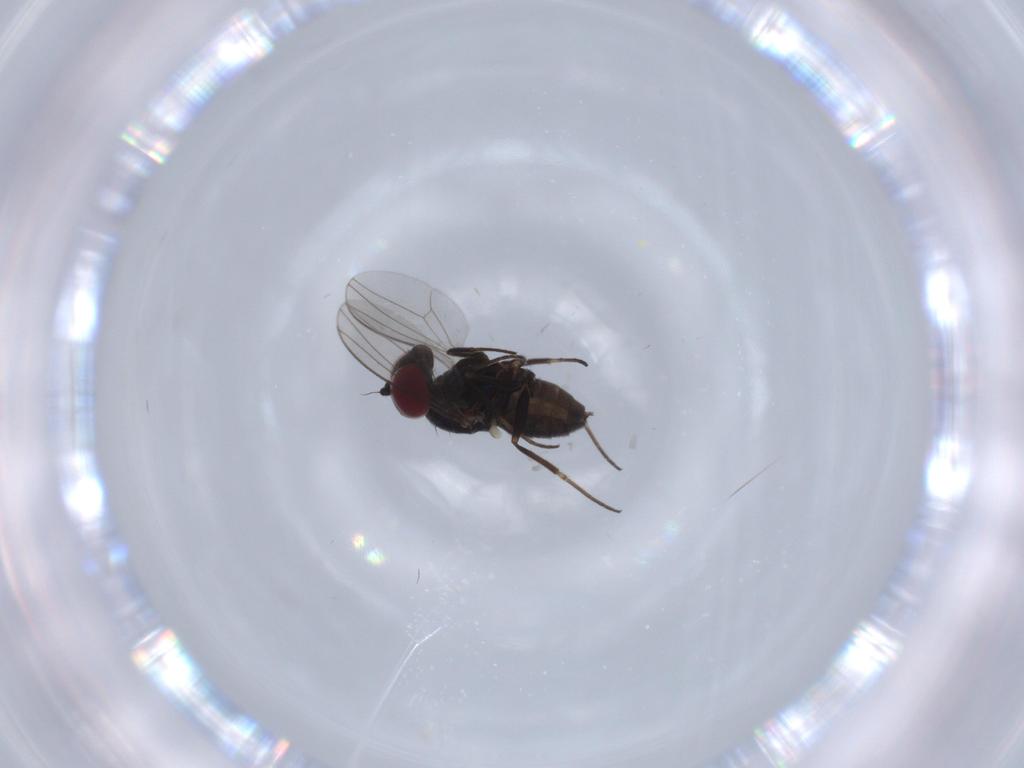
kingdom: Animalia
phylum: Arthropoda
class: Insecta
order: Diptera
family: Dolichopodidae
